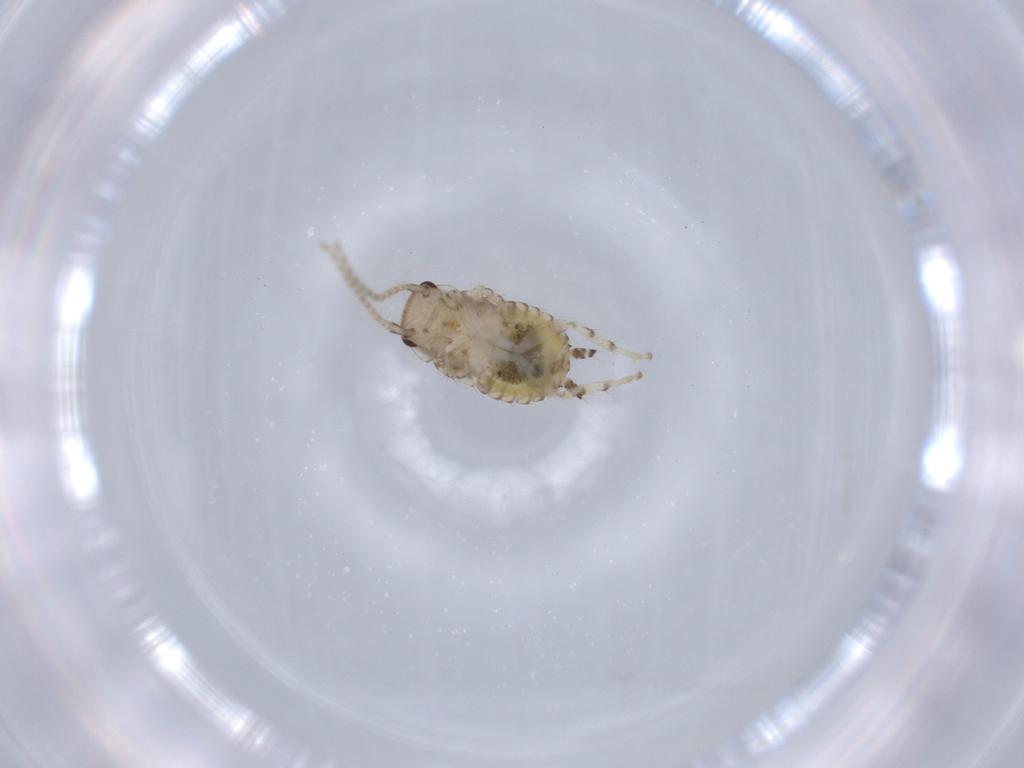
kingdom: Animalia
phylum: Arthropoda
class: Insecta
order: Blattodea
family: Ectobiidae
